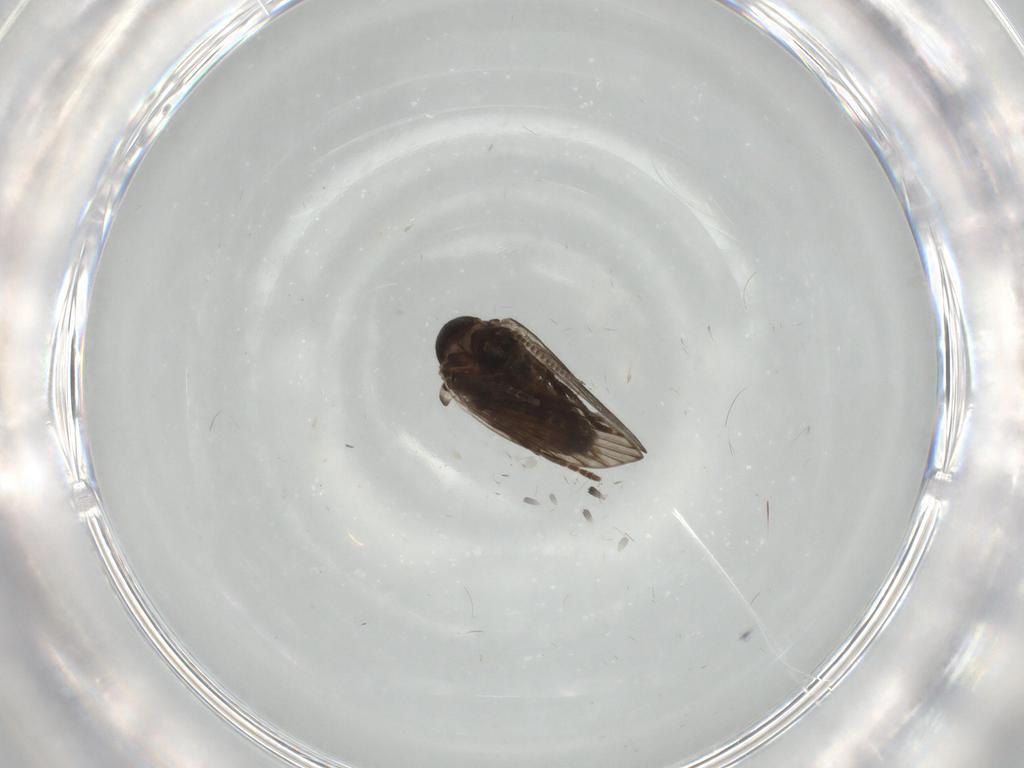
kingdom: Animalia
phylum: Arthropoda
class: Insecta
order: Diptera
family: Psychodidae
